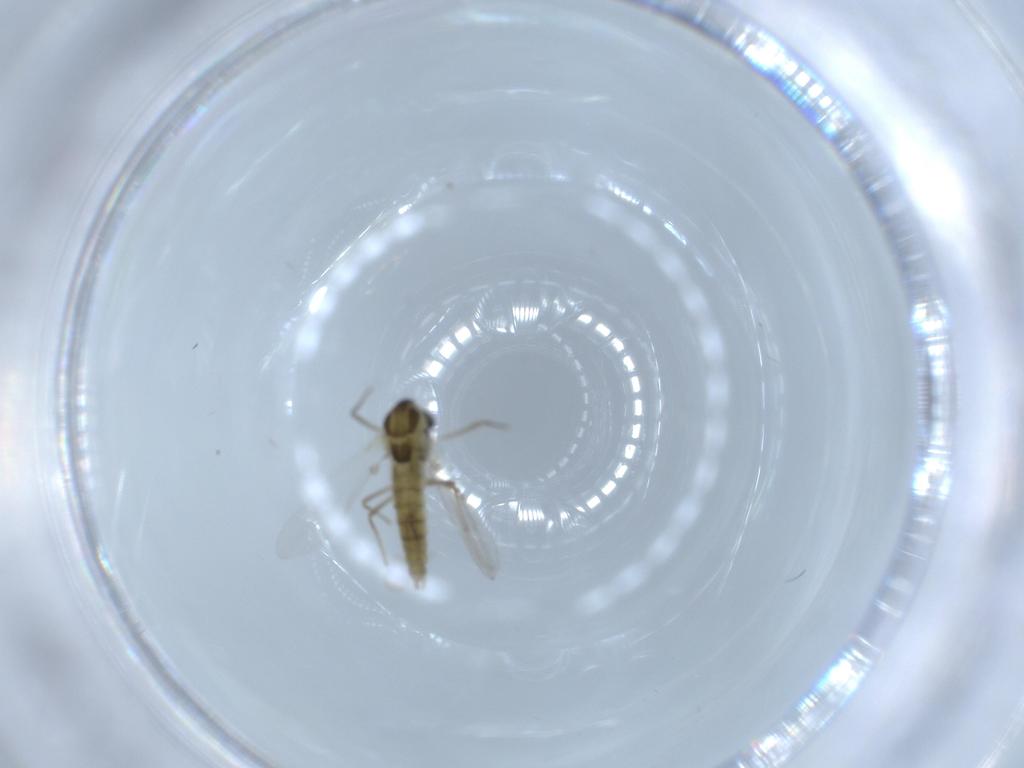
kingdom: Animalia
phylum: Arthropoda
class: Insecta
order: Diptera
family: Chironomidae
